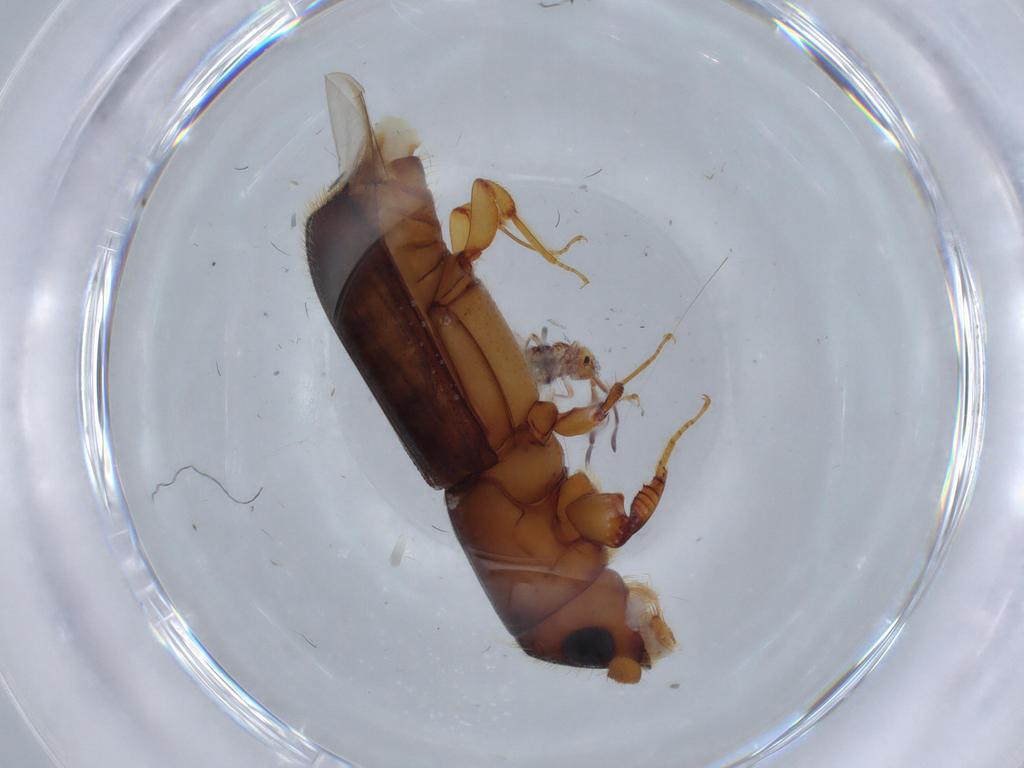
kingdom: Animalia
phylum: Arthropoda
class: Insecta
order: Coleoptera
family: Curculionidae
